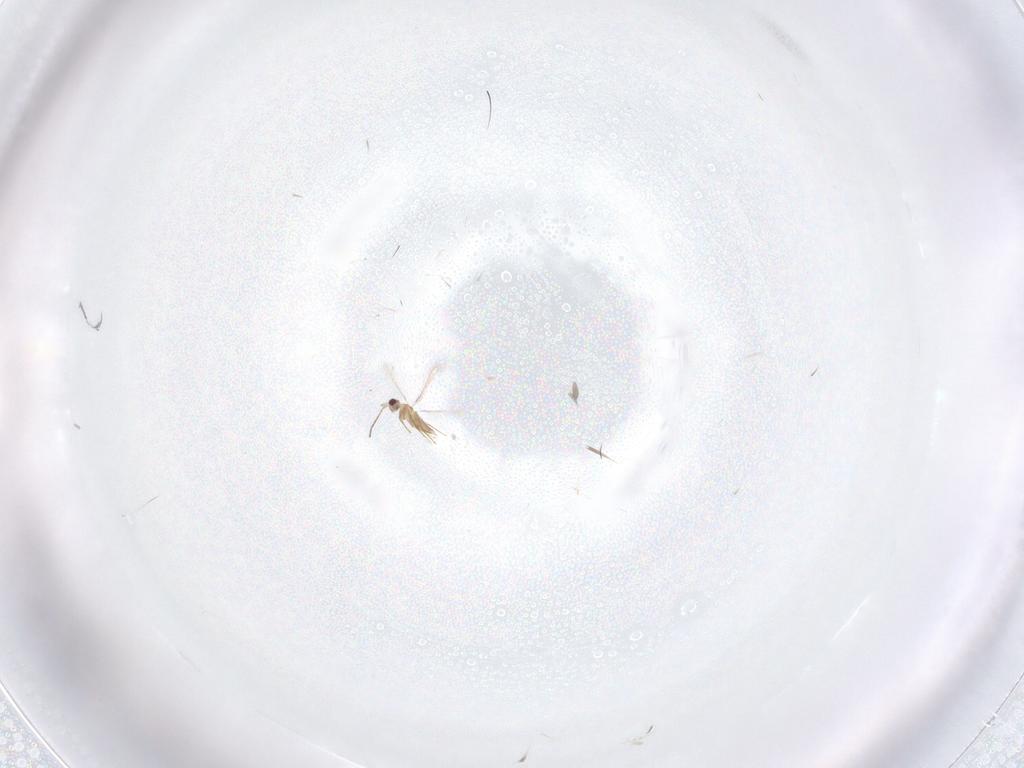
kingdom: Animalia
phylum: Arthropoda
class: Insecta
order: Diptera
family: Cecidomyiidae
